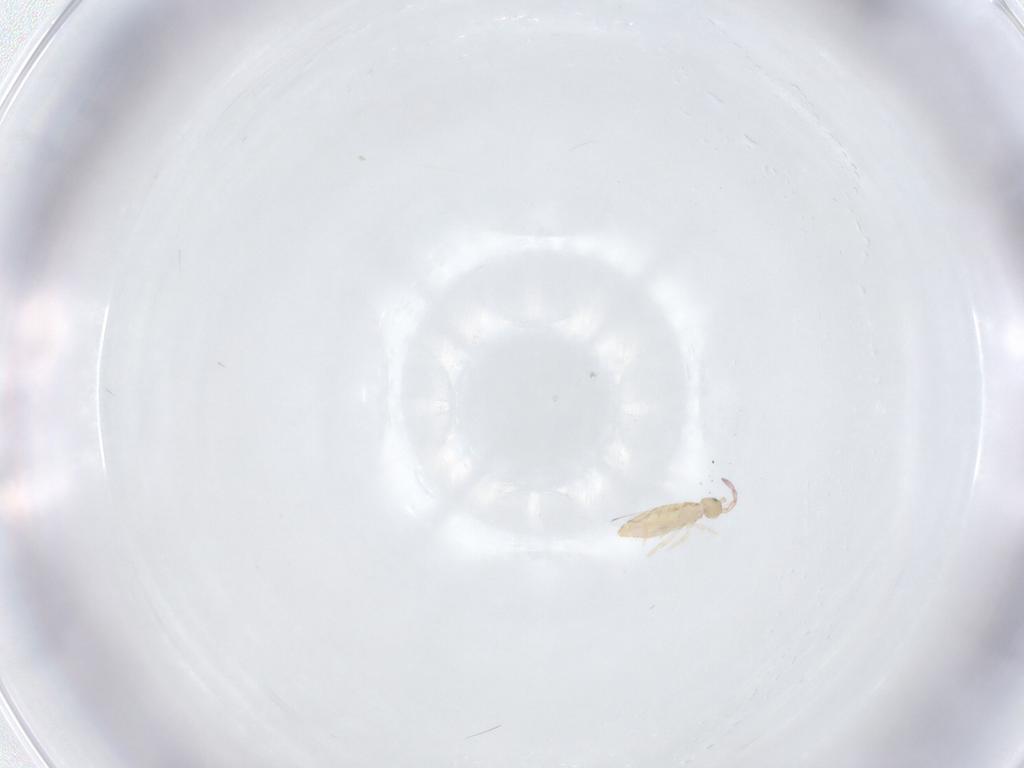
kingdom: Animalia
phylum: Arthropoda
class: Collembola
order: Entomobryomorpha
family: Entomobryidae
